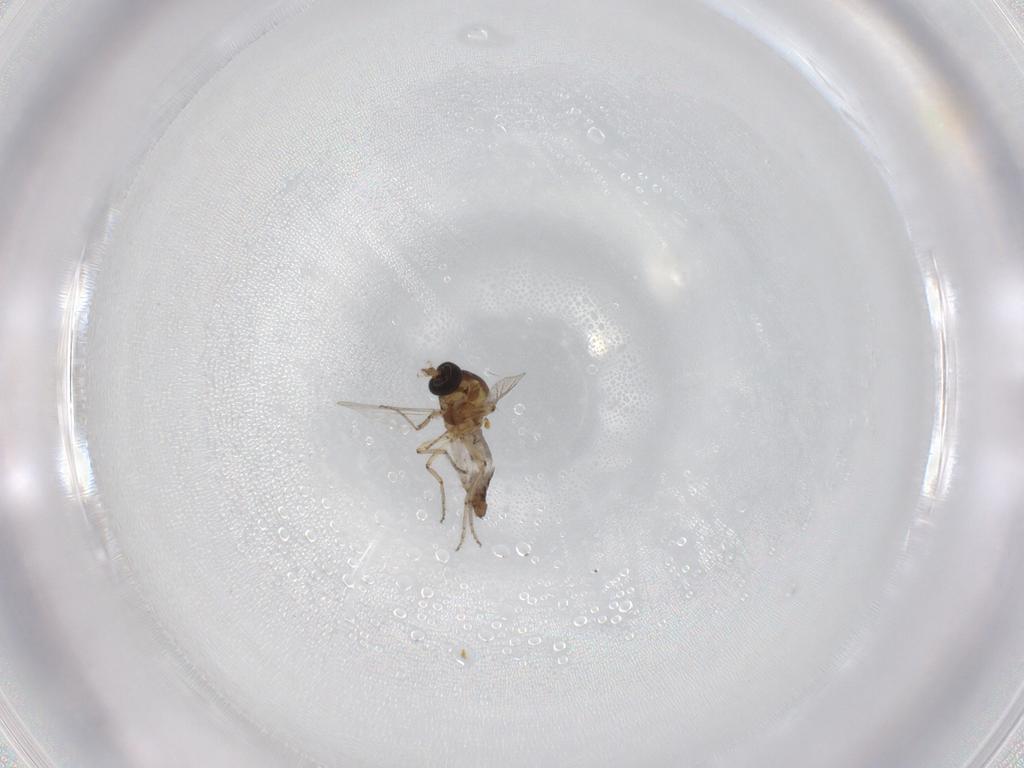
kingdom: Animalia
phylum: Arthropoda
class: Insecta
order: Diptera
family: Ceratopogonidae
